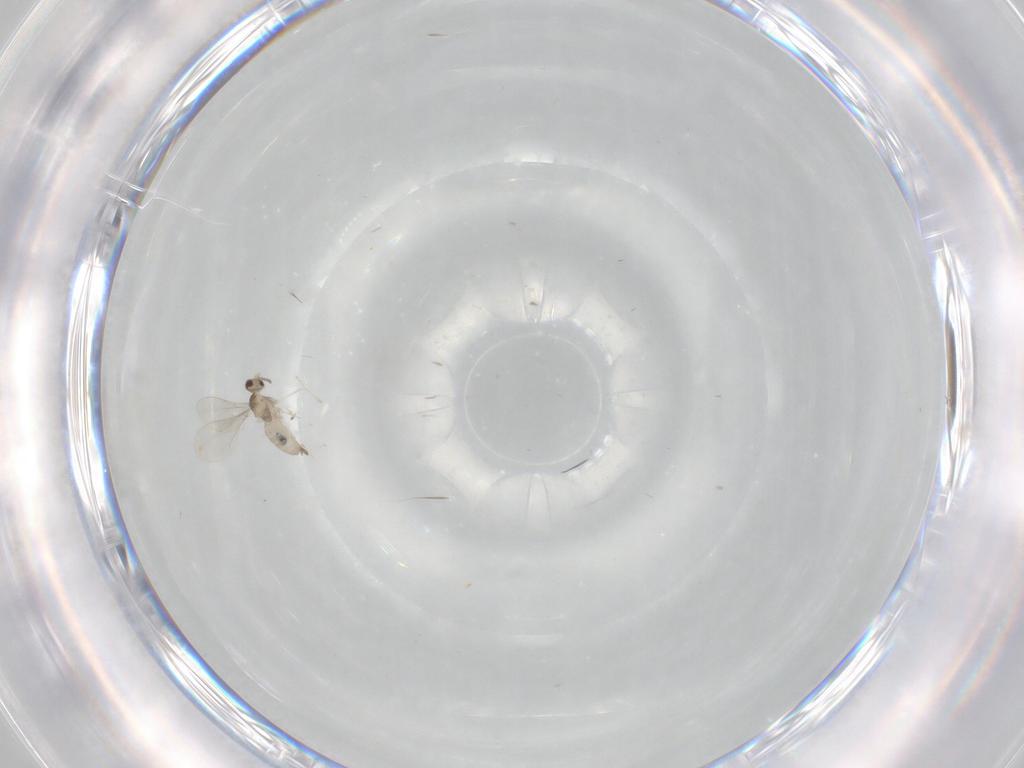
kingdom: Animalia
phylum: Arthropoda
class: Insecta
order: Diptera
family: Cecidomyiidae
